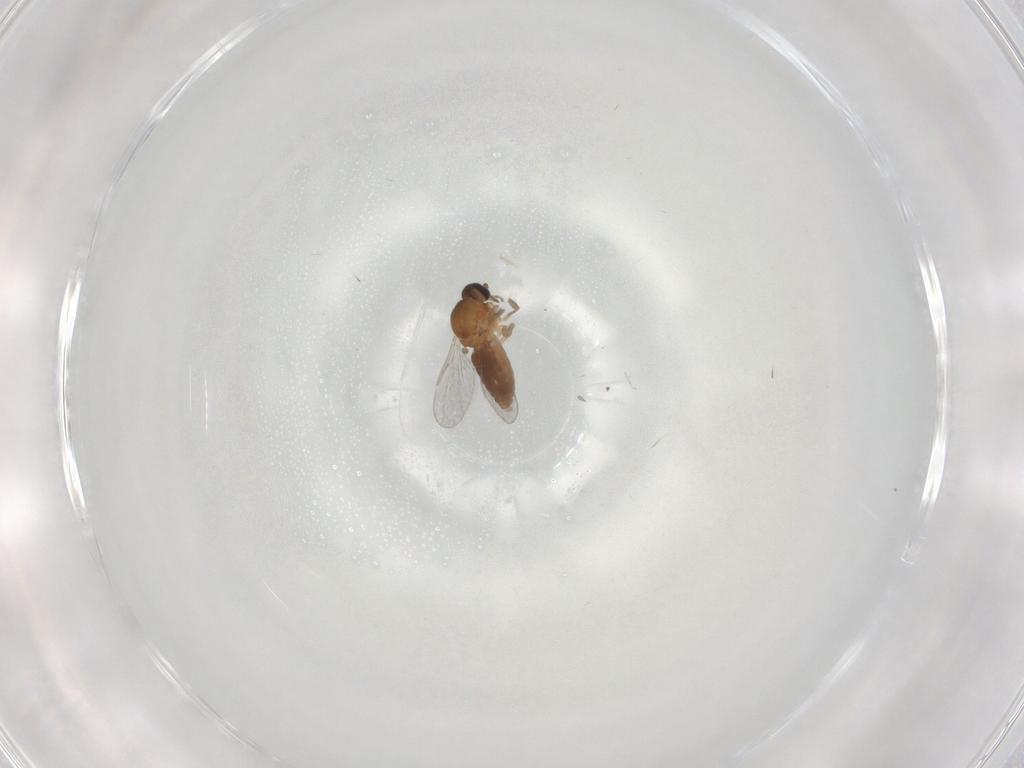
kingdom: Animalia
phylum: Arthropoda
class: Insecta
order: Diptera
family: Ceratopogonidae
